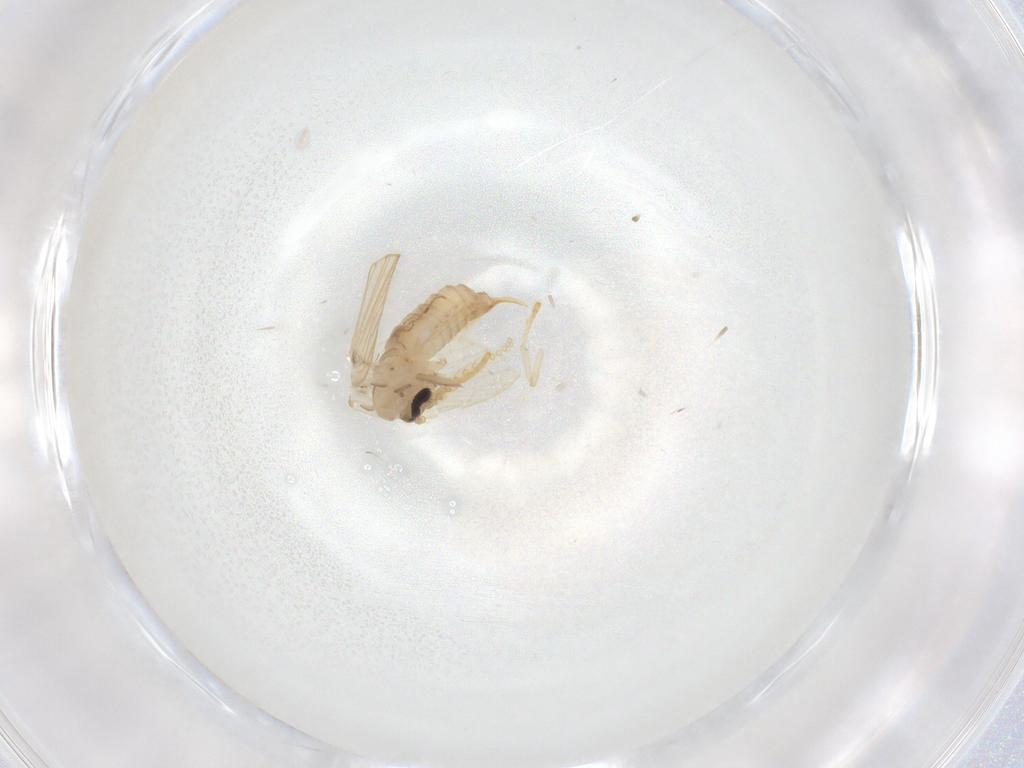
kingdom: Animalia
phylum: Arthropoda
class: Insecta
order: Diptera
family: Psychodidae
